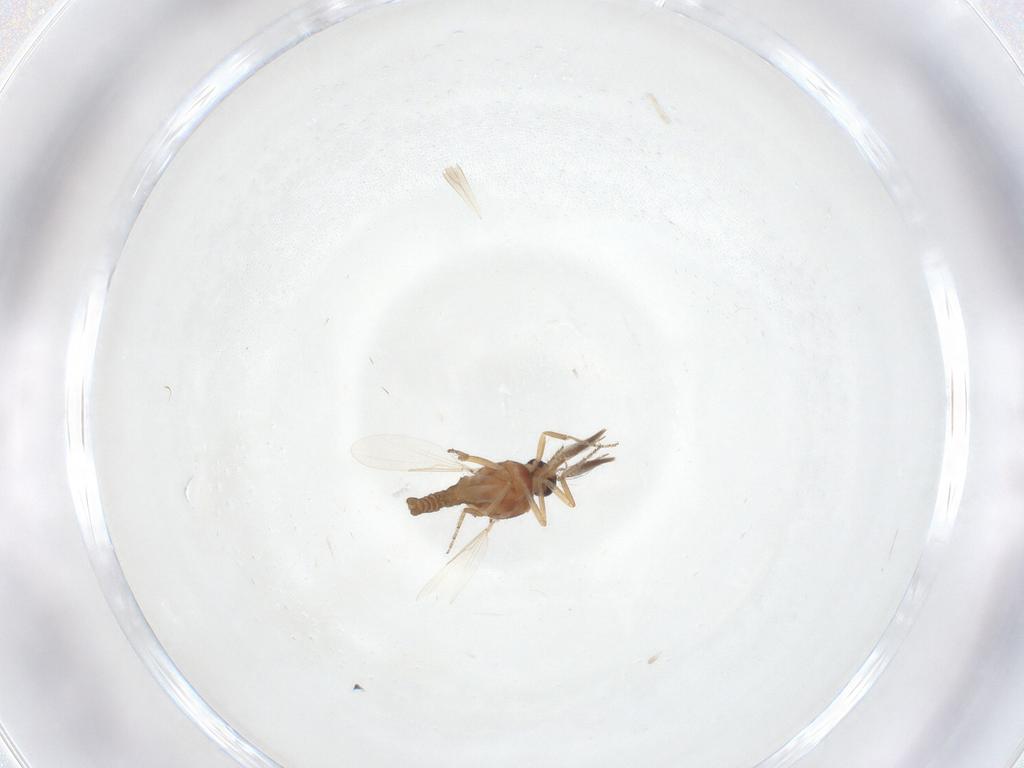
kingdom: Animalia
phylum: Arthropoda
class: Insecta
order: Diptera
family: Ceratopogonidae
